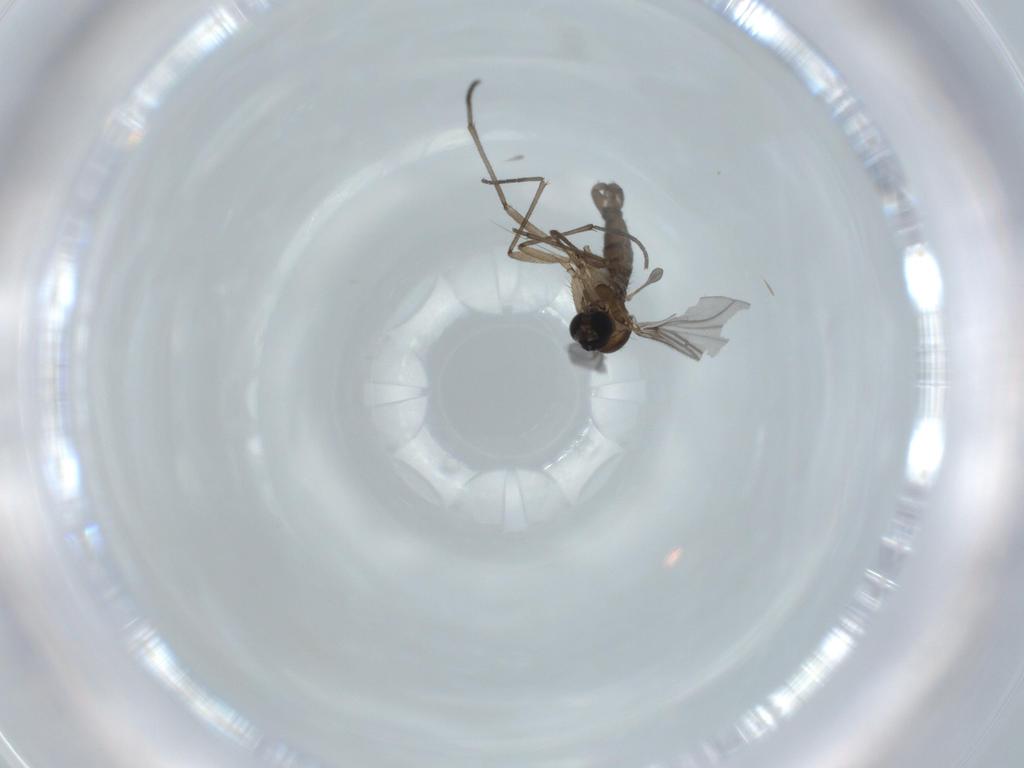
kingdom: Animalia
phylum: Arthropoda
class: Insecta
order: Diptera
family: Sciaridae
